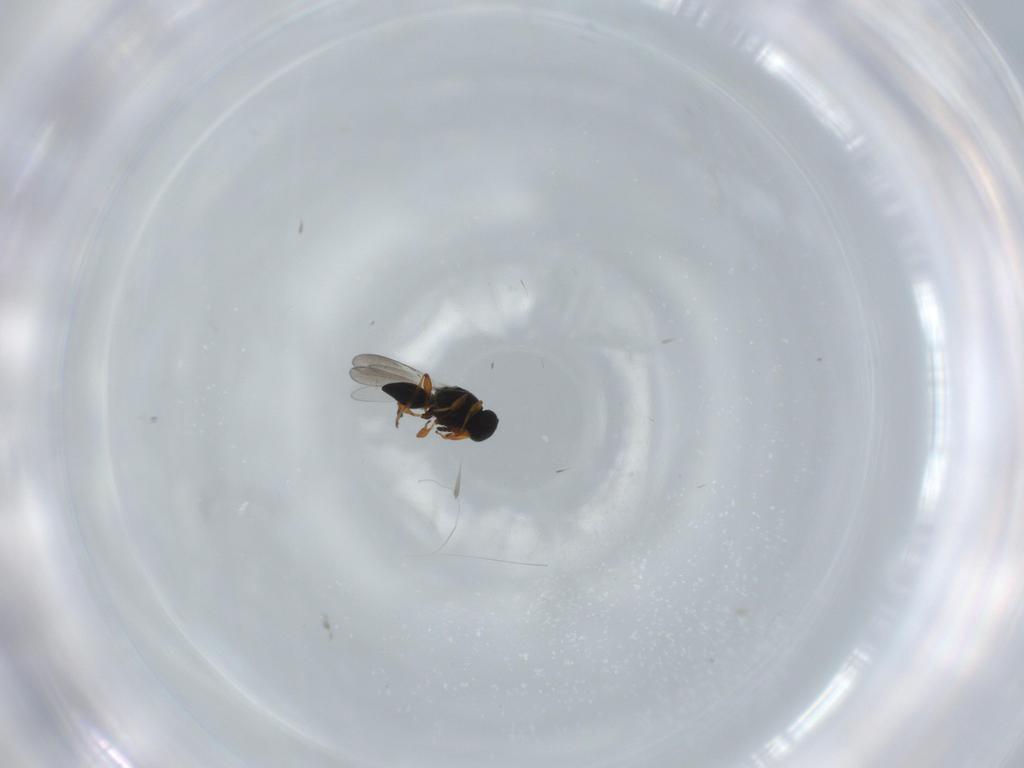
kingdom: Animalia
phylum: Arthropoda
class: Insecta
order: Hymenoptera
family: Platygastridae
